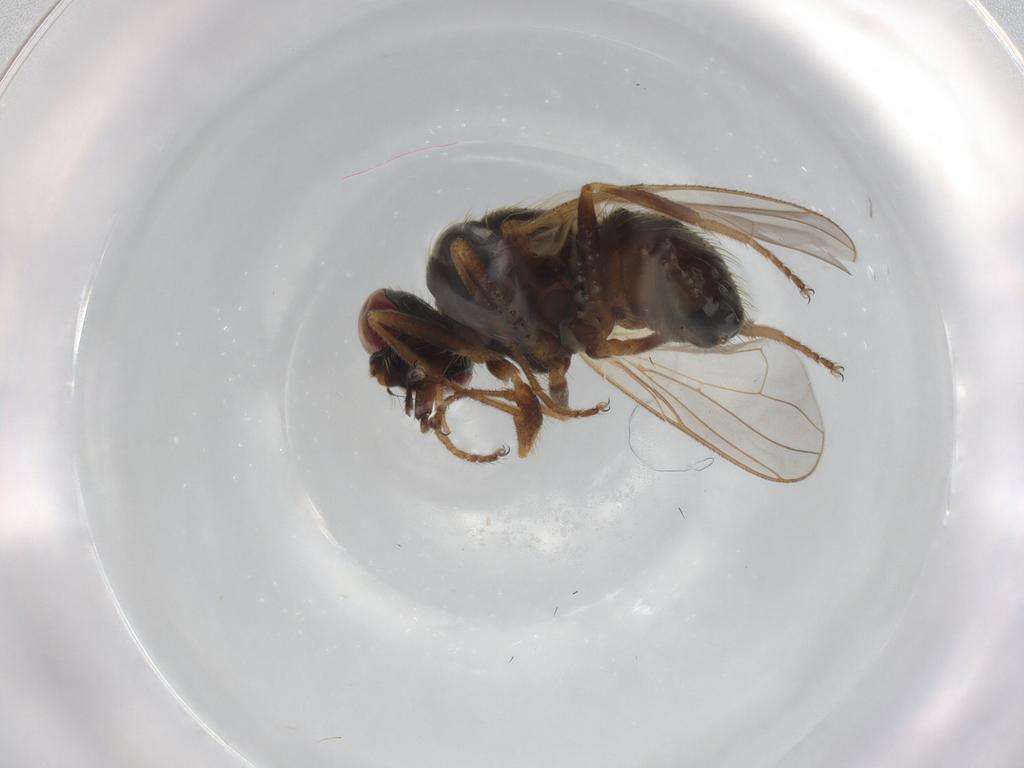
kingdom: Animalia
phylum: Arthropoda
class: Insecta
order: Diptera
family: Muscidae
